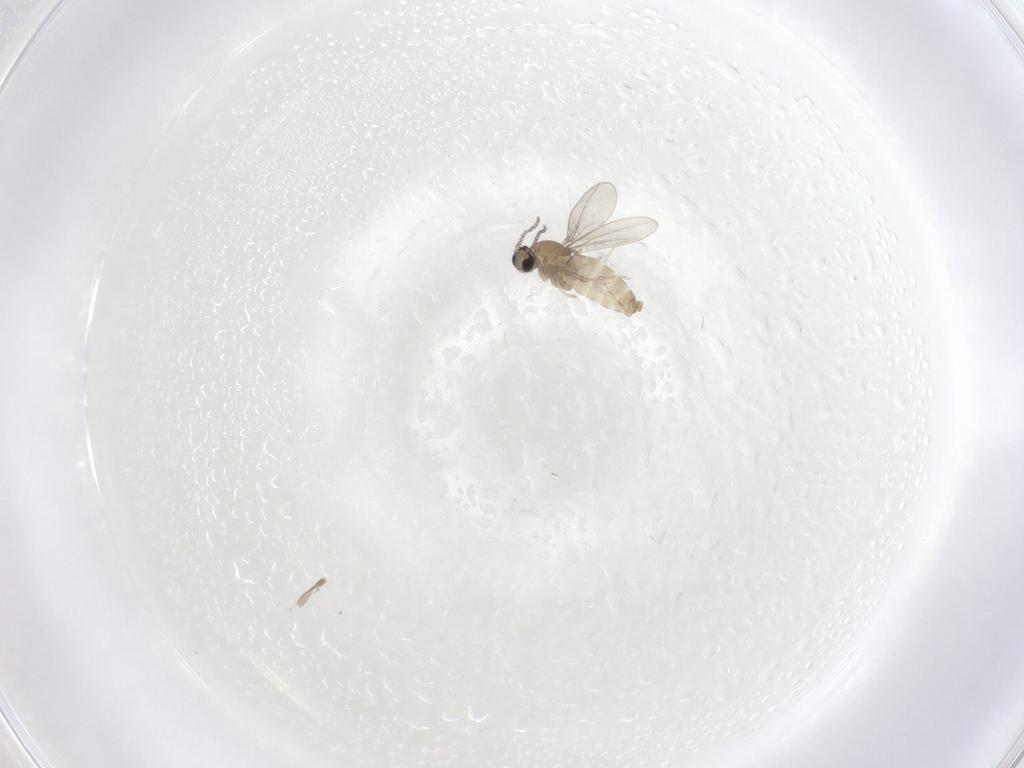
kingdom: Animalia
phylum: Arthropoda
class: Insecta
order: Diptera
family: Cecidomyiidae
